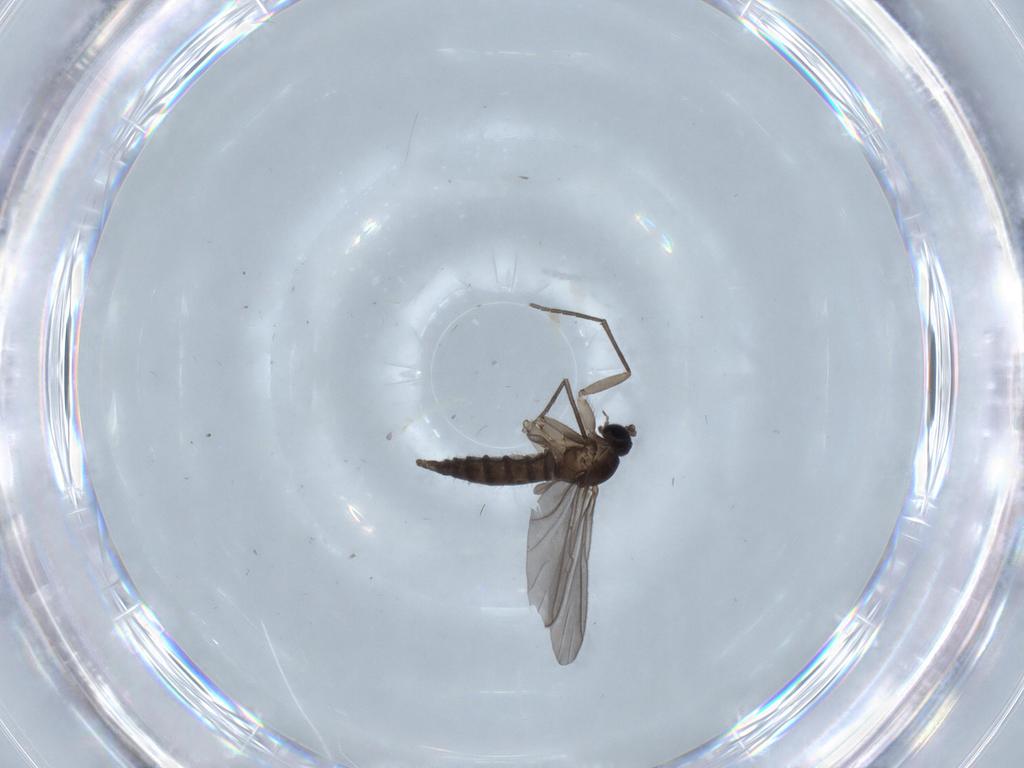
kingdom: Animalia
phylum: Arthropoda
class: Insecta
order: Diptera
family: Sciaridae
